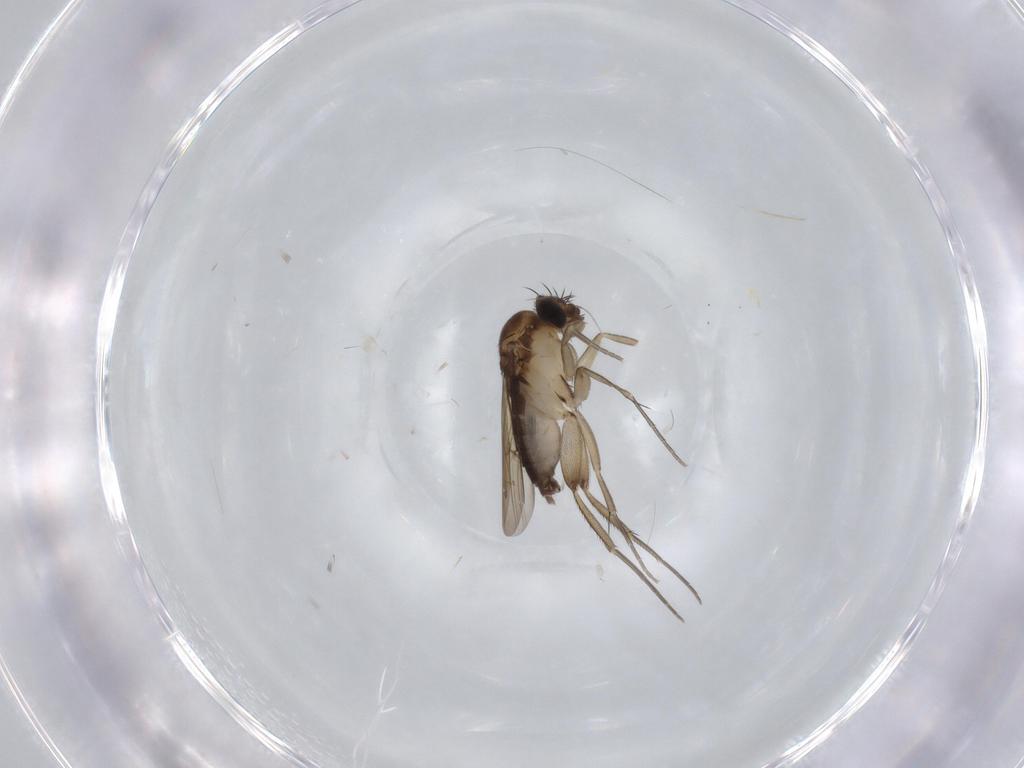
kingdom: Animalia
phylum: Arthropoda
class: Insecta
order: Diptera
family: Phoridae
